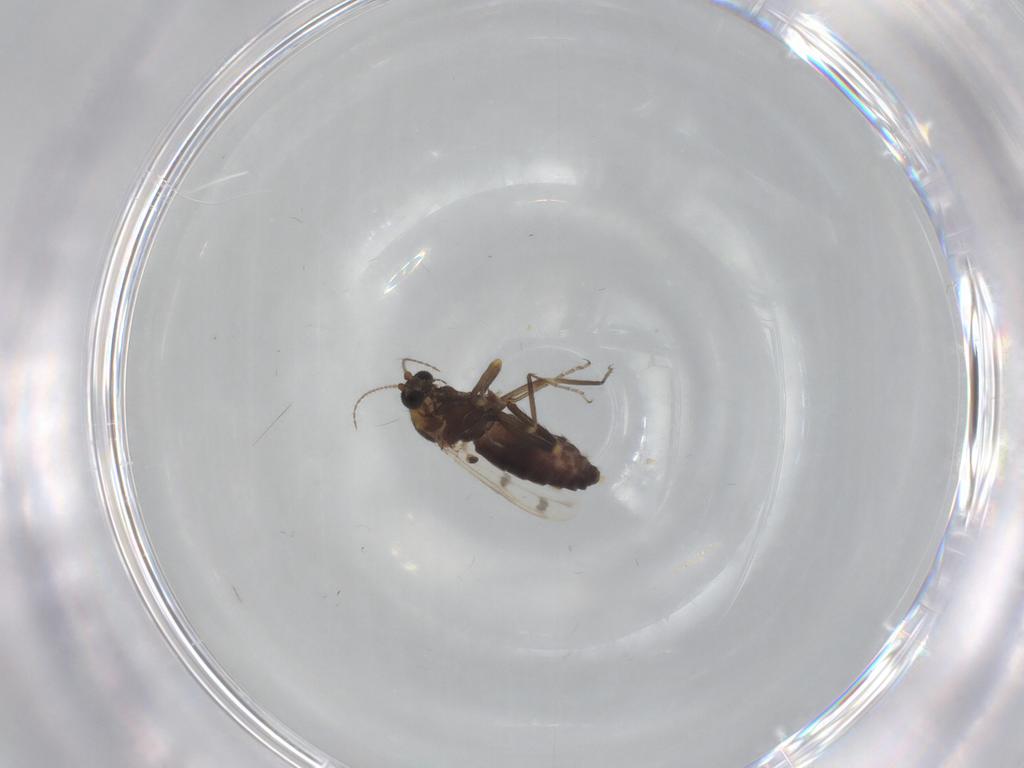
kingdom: Animalia
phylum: Arthropoda
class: Insecta
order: Diptera
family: Ceratopogonidae
